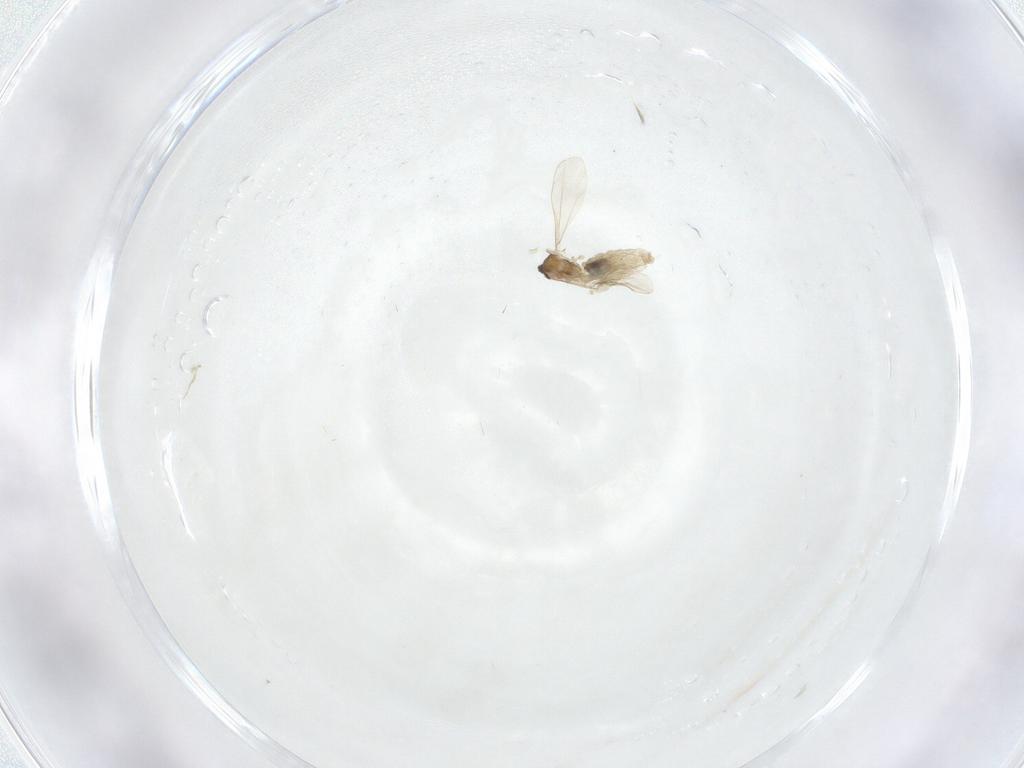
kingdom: Animalia
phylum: Arthropoda
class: Insecta
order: Diptera
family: Cecidomyiidae
